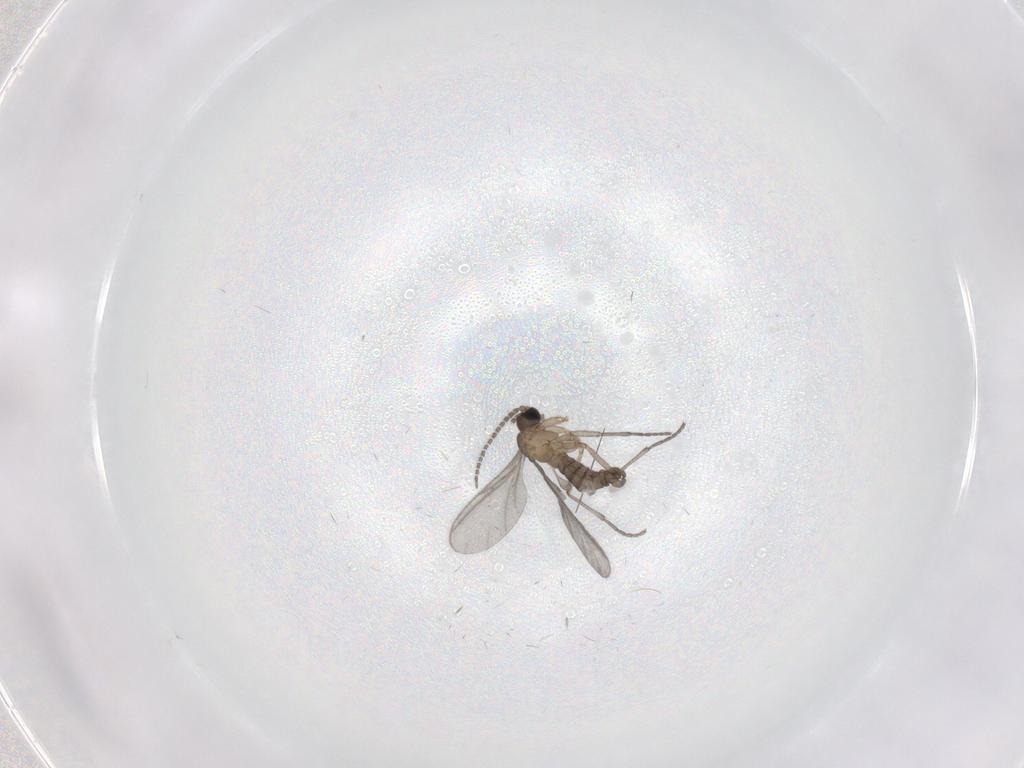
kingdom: Animalia
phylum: Arthropoda
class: Insecta
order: Diptera
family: Sciaridae
